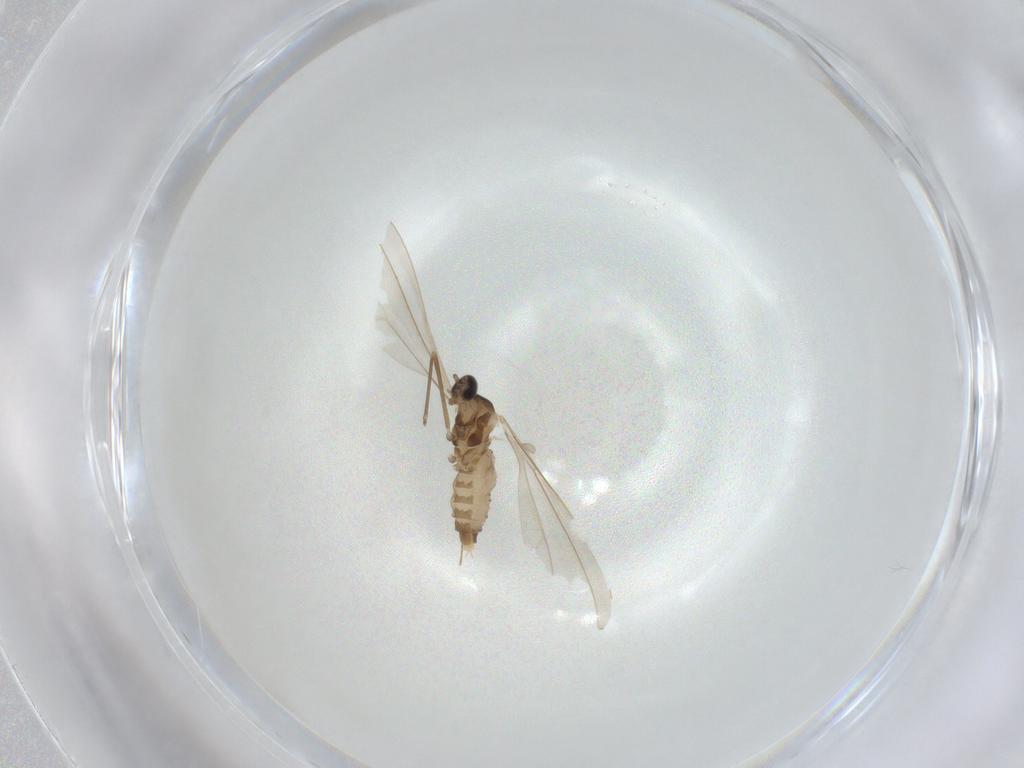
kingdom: Animalia
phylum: Arthropoda
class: Insecta
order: Diptera
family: Cecidomyiidae
